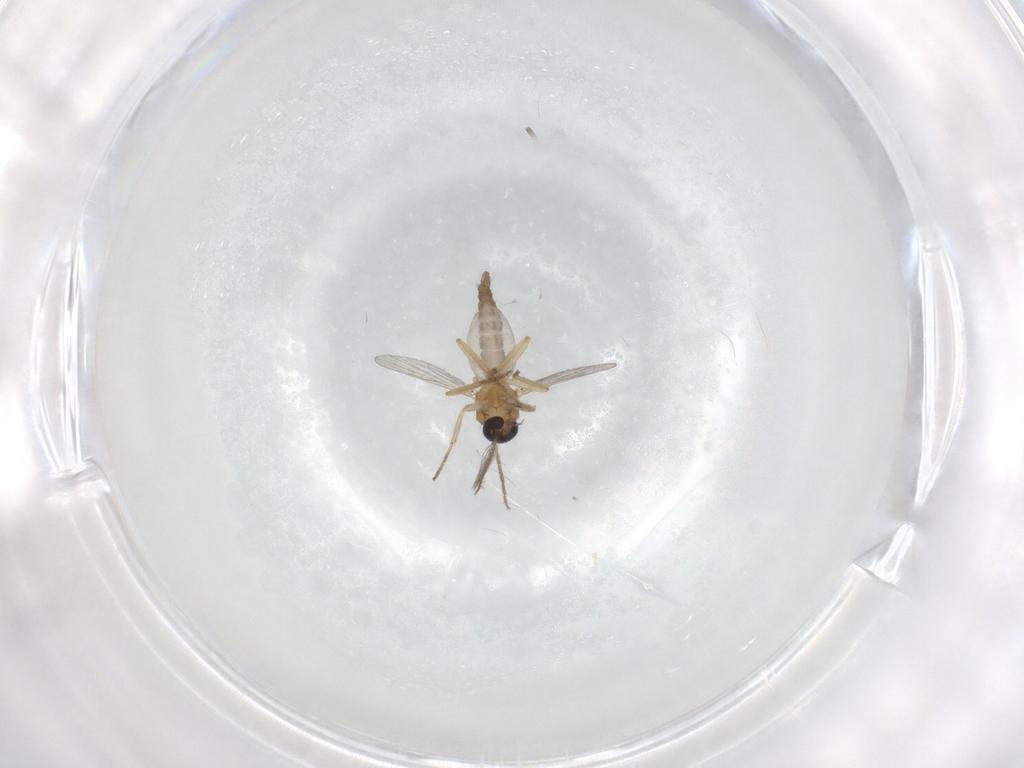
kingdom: Animalia
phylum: Arthropoda
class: Insecta
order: Diptera
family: Ceratopogonidae
